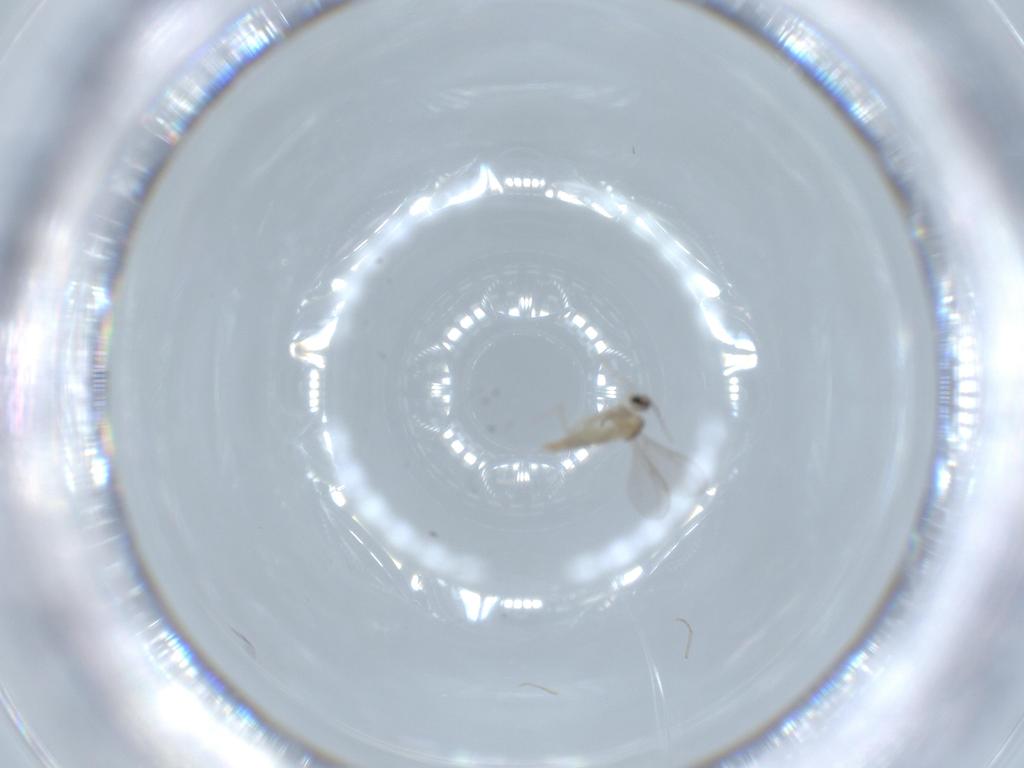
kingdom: Animalia
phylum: Arthropoda
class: Insecta
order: Diptera
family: Cecidomyiidae
